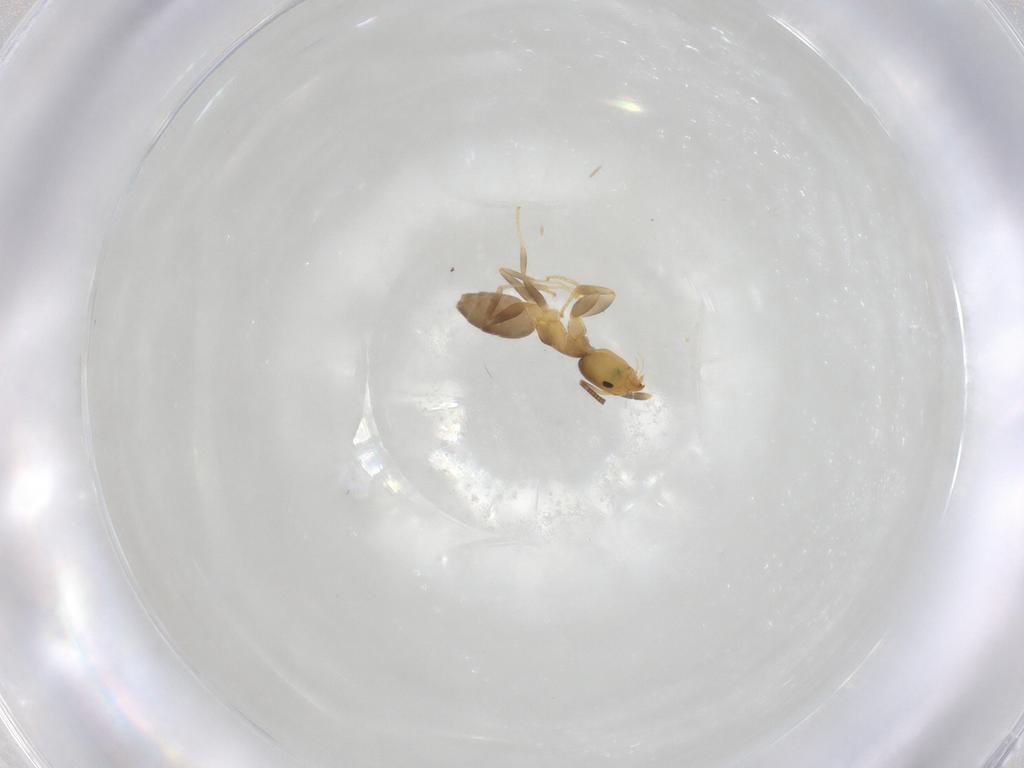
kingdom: Animalia
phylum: Arthropoda
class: Insecta
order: Hymenoptera
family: Formicidae
